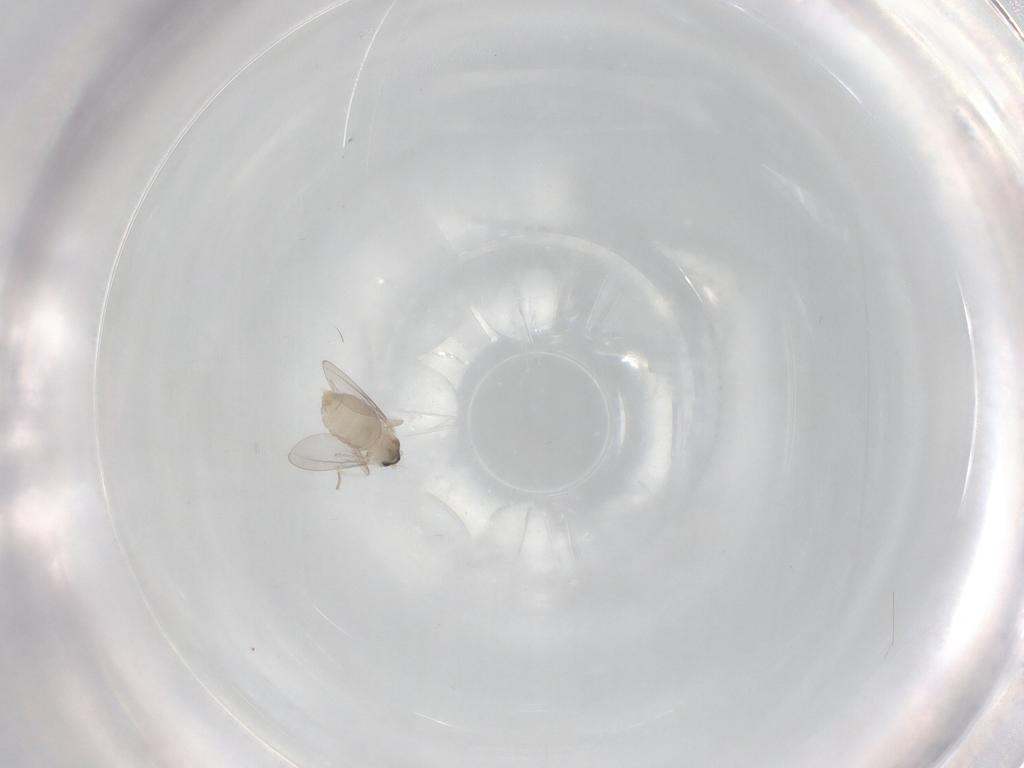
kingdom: Animalia
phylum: Arthropoda
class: Insecta
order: Diptera
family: Cecidomyiidae
